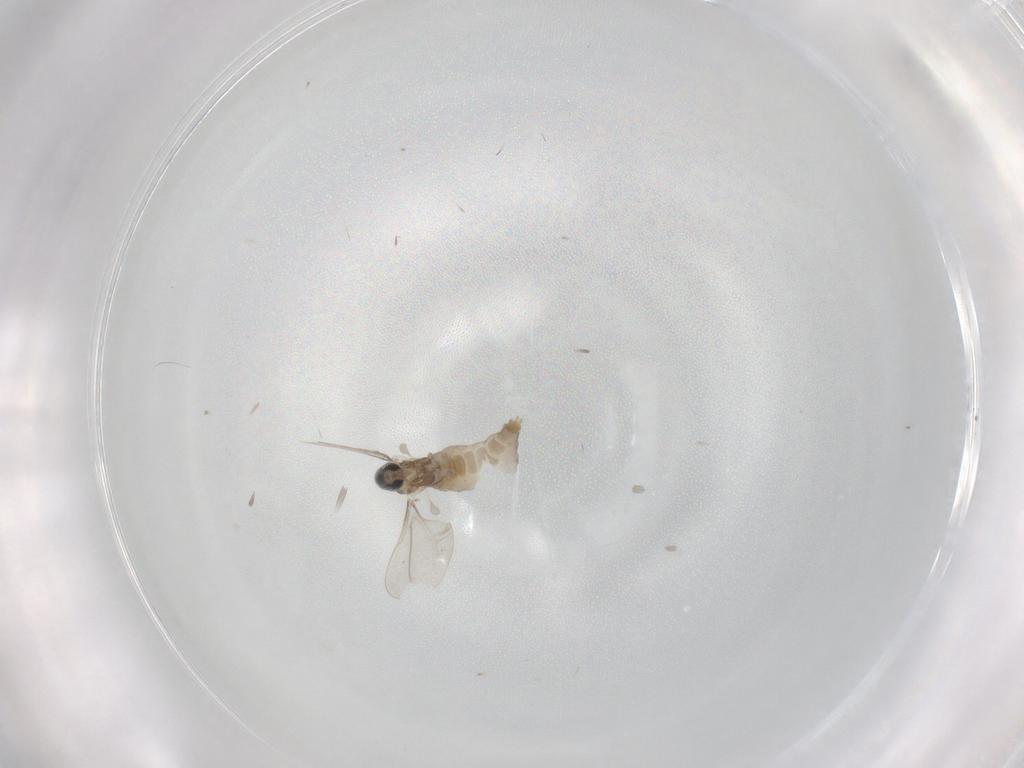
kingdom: Animalia
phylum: Arthropoda
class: Insecta
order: Diptera
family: Cecidomyiidae
